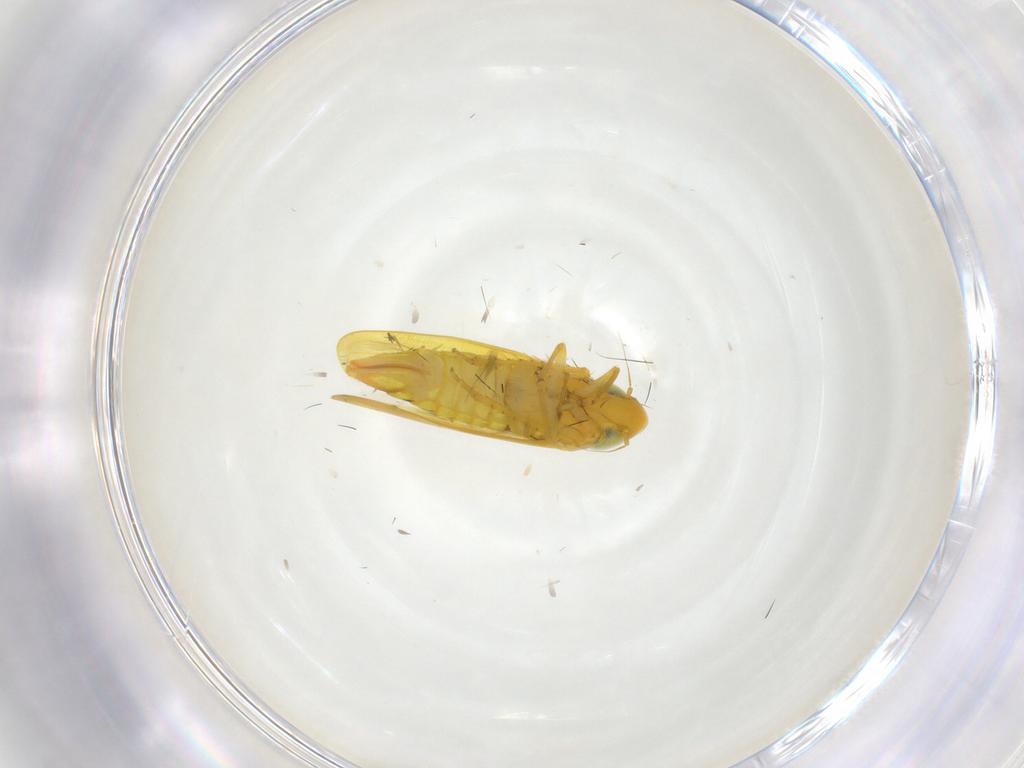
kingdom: Animalia
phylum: Arthropoda
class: Insecta
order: Hemiptera
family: Cicadellidae
